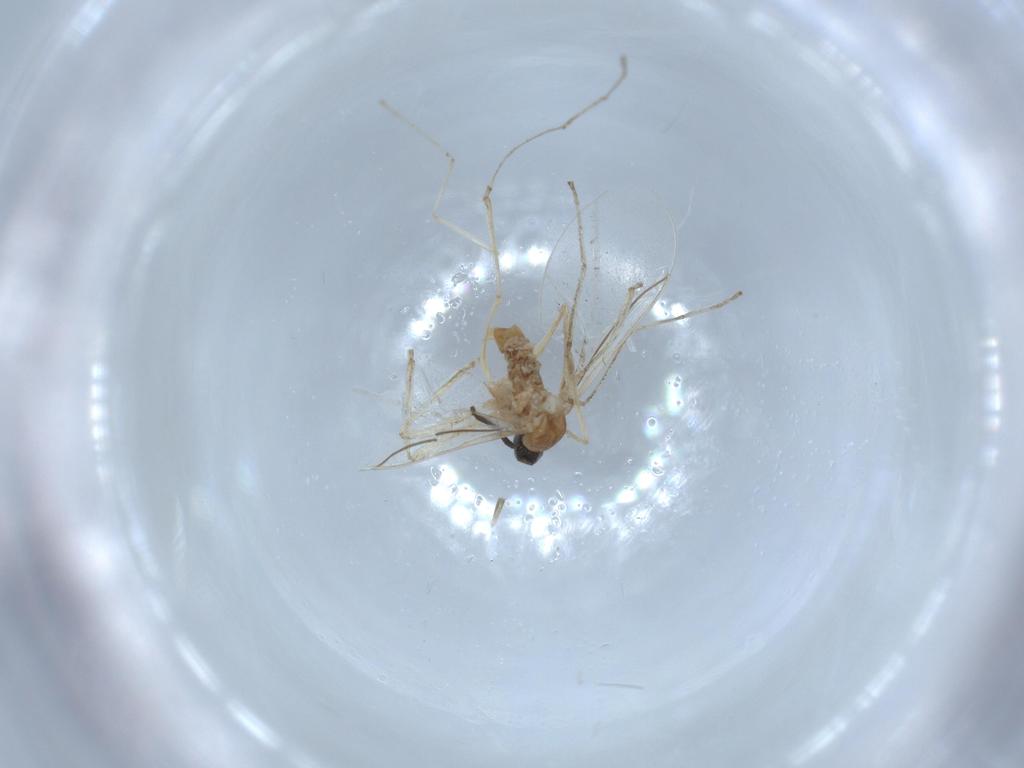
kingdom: Animalia
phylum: Arthropoda
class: Insecta
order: Diptera
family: Cecidomyiidae
